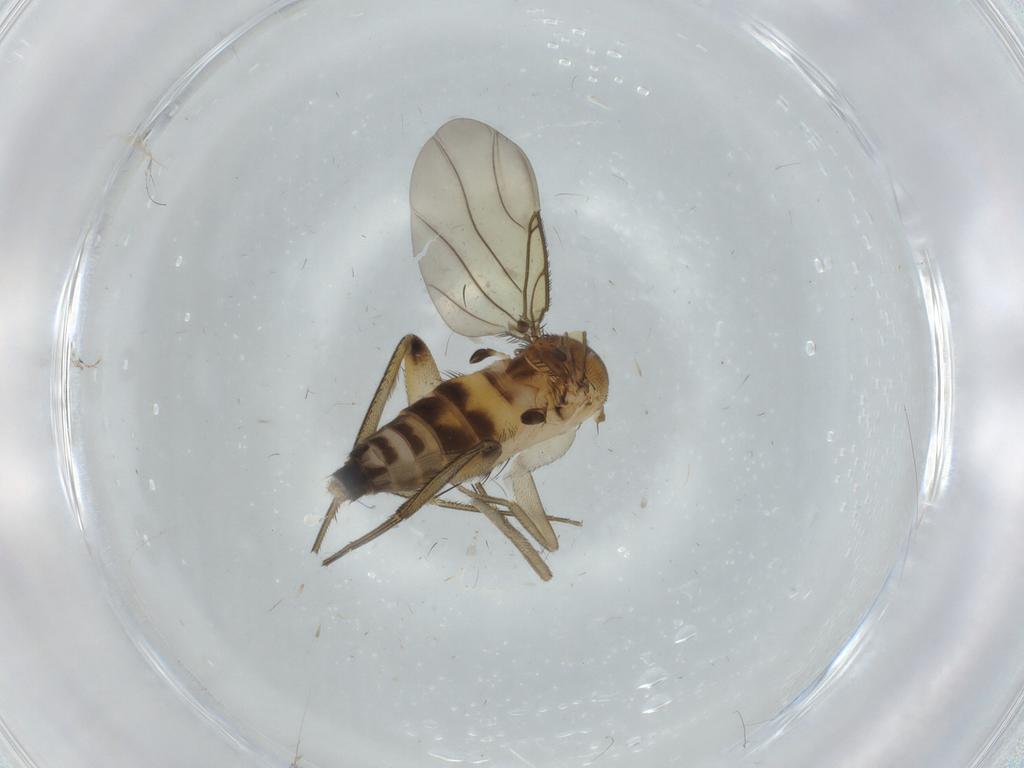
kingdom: Animalia
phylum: Arthropoda
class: Insecta
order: Diptera
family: Phoridae
